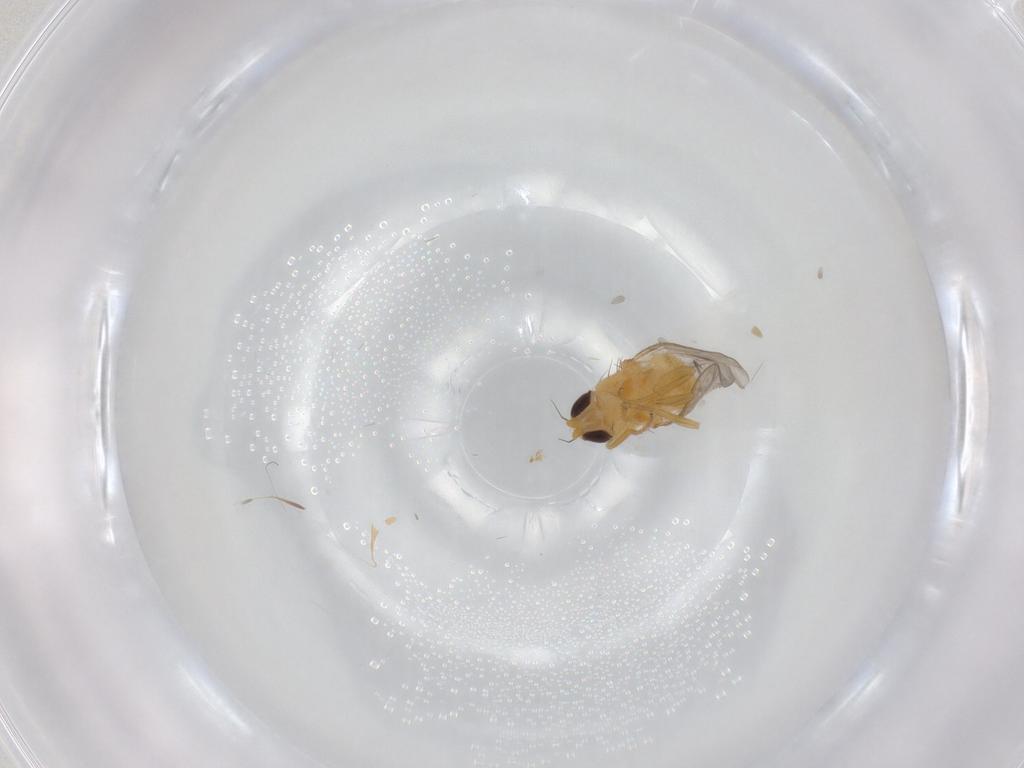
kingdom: Animalia
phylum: Arthropoda
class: Insecta
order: Diptera
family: Chloropidae
